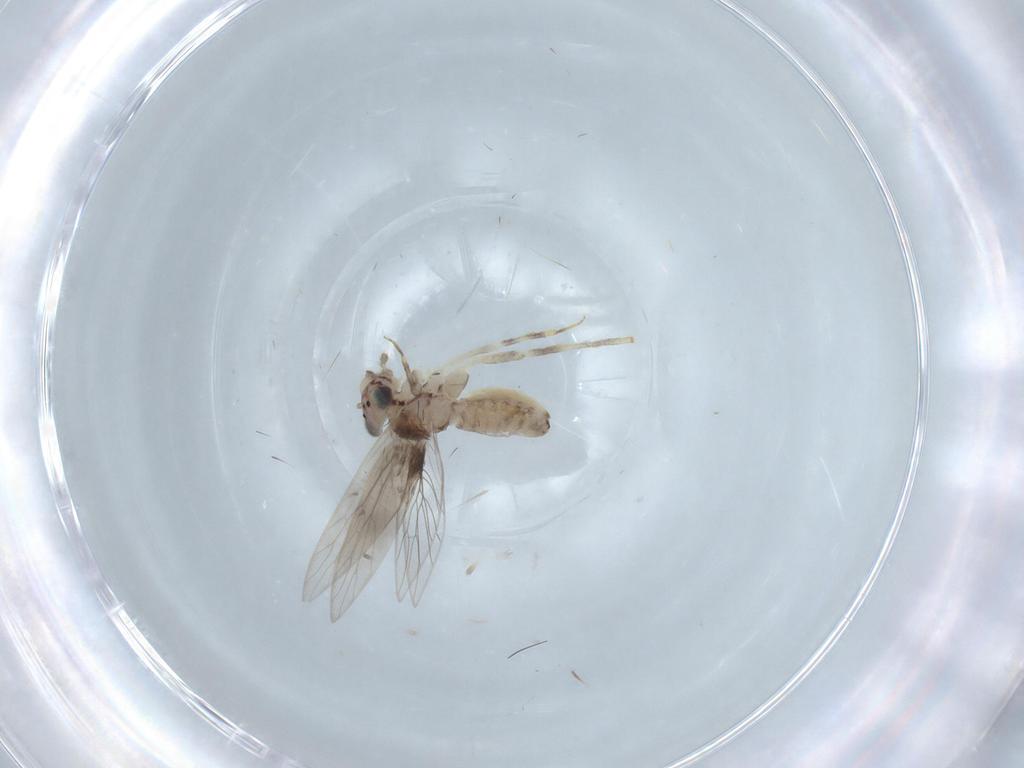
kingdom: Animalia
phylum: Arthropoda
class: Insecta
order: Psocodea
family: Lepidopsocidae
